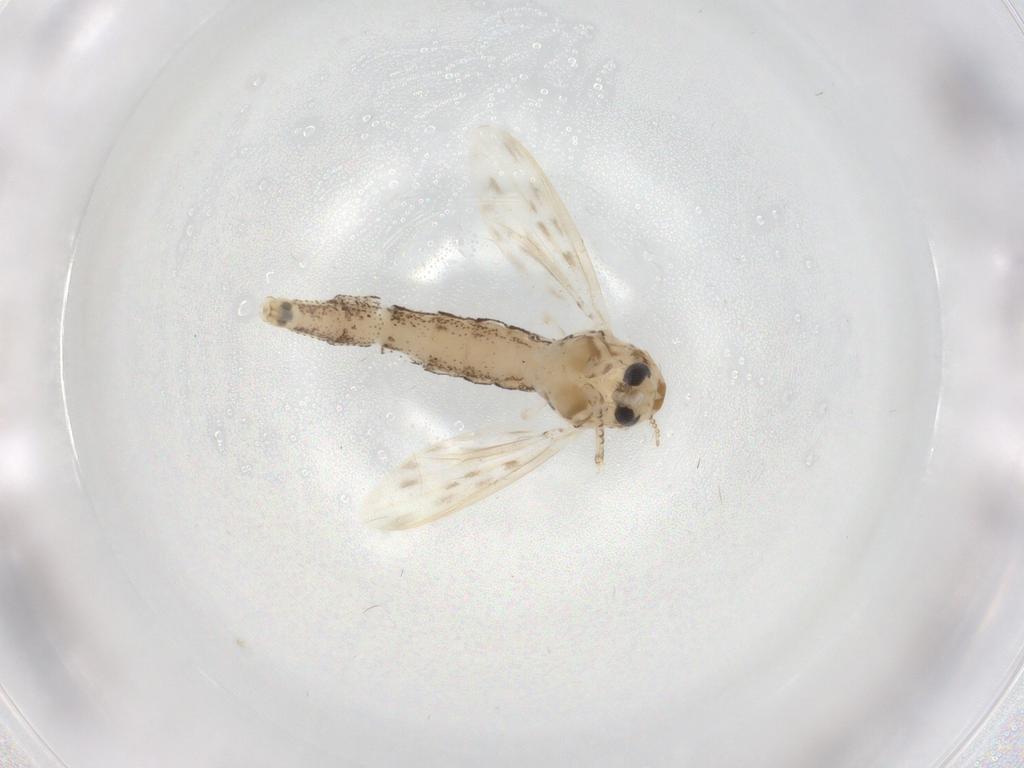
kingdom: Animalia
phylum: Arthropoda
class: Insecta
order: Diptera
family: Chaoboridae
